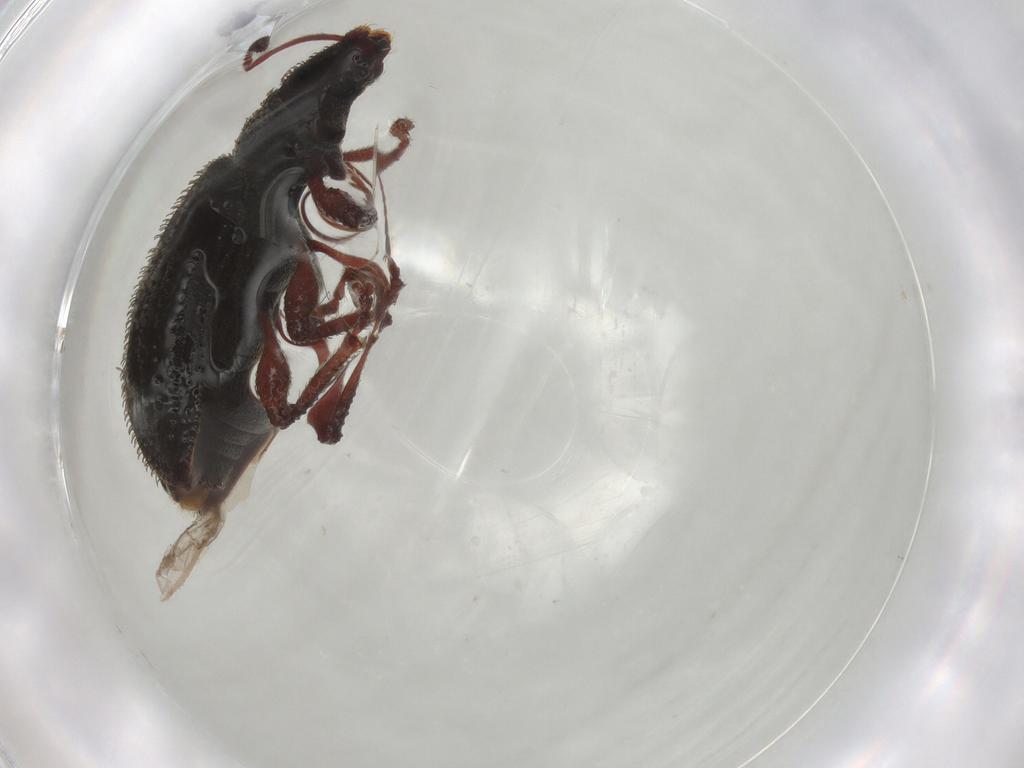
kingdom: Animalia
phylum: Arthropoda
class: Insecta
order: Coleoptera
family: Curculionidae
